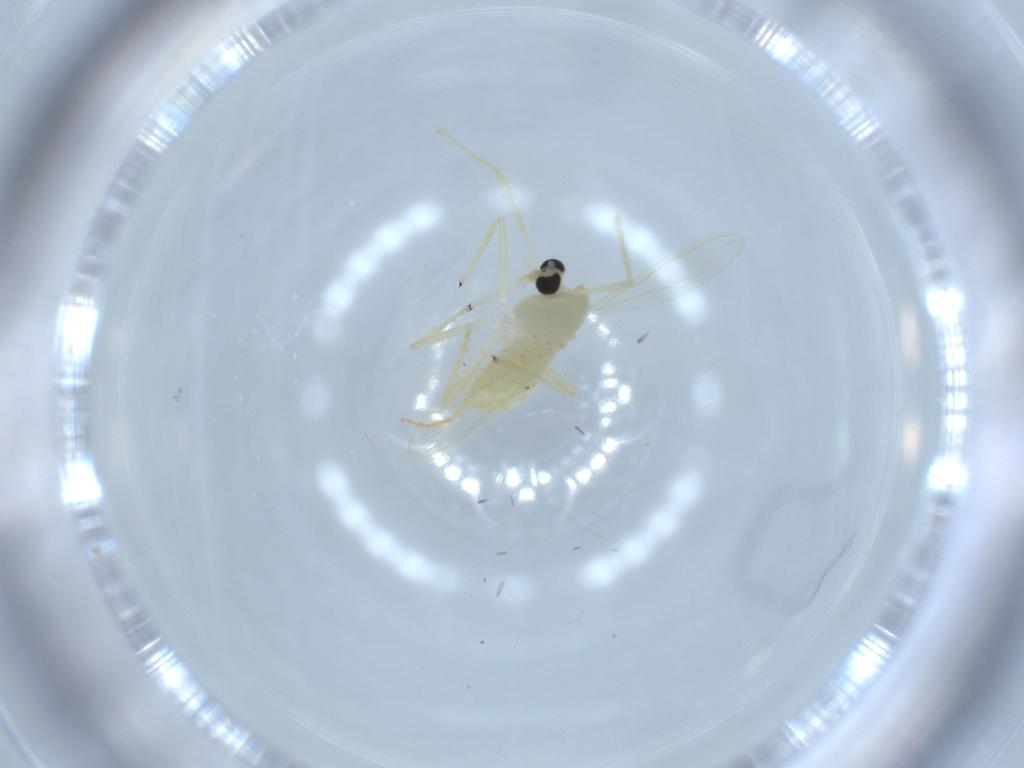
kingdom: Animalia
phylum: Arthropoda
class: Insecta
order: Diptera
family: Chironomidae
